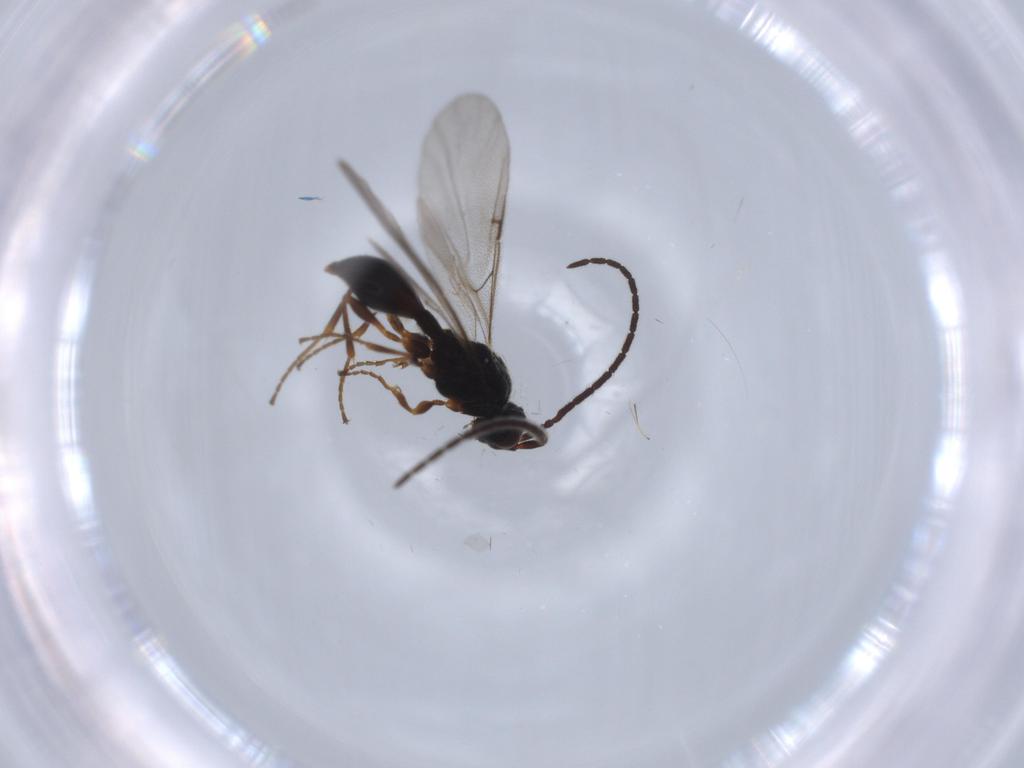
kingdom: Animalia
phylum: Arthropoda
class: Insecta
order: Hymenoptera
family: Diapriidae
